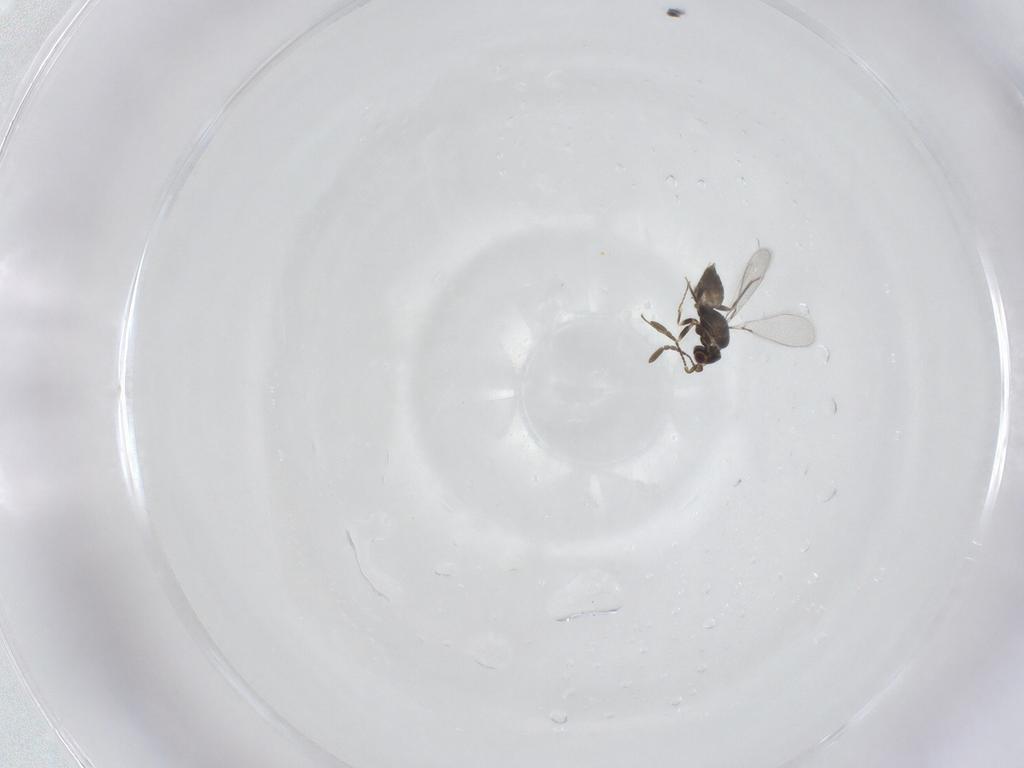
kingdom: Animalia
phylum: Arthropoda
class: Insecta
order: Hymenoptera
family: Mymaridae
